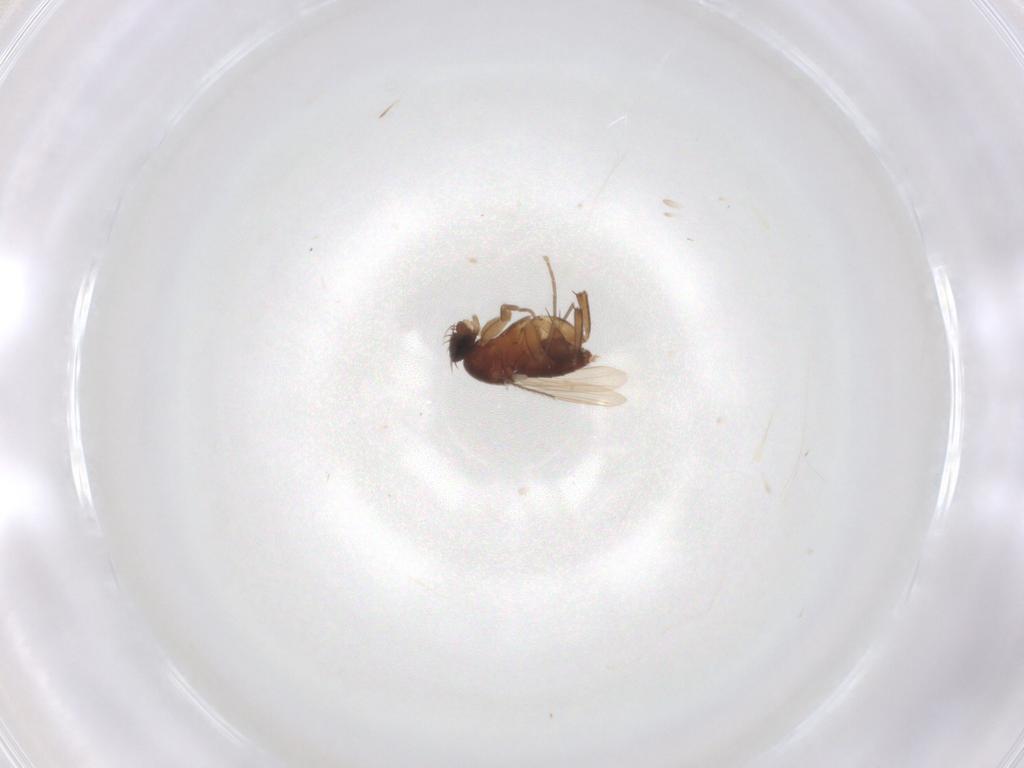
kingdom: Animalia
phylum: Arthropoda
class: Insecta
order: Diptera
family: Phoridae
